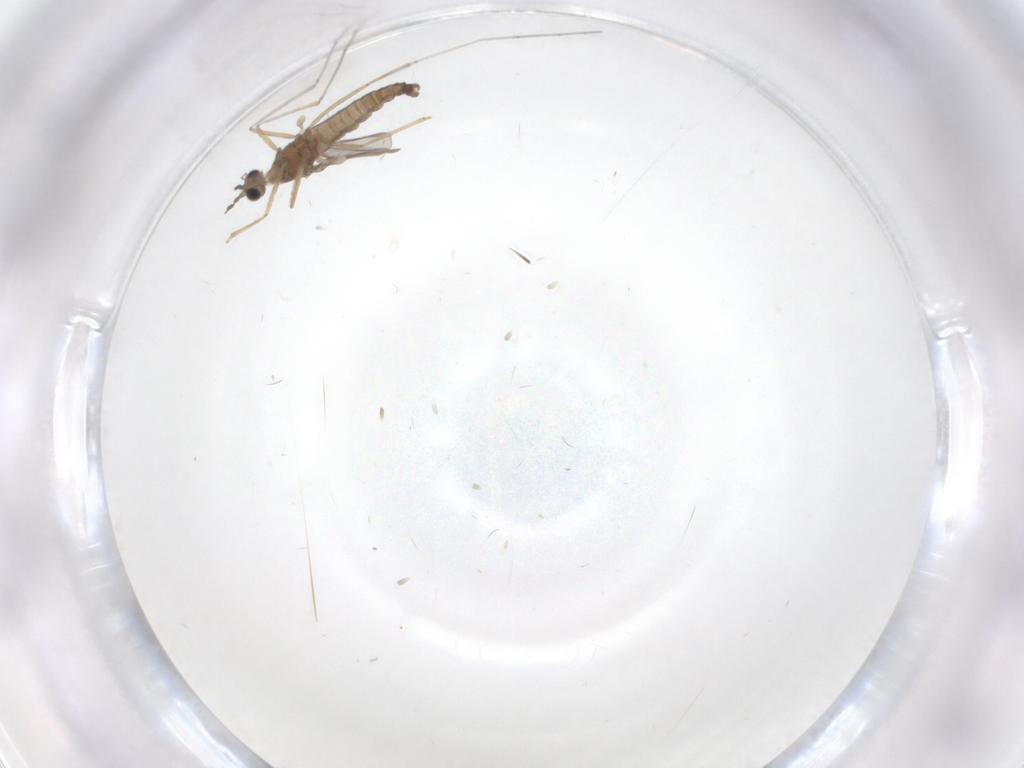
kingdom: Animalia
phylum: Arthropoda
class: Insecta
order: Diptera
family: Cecidomyiidae
